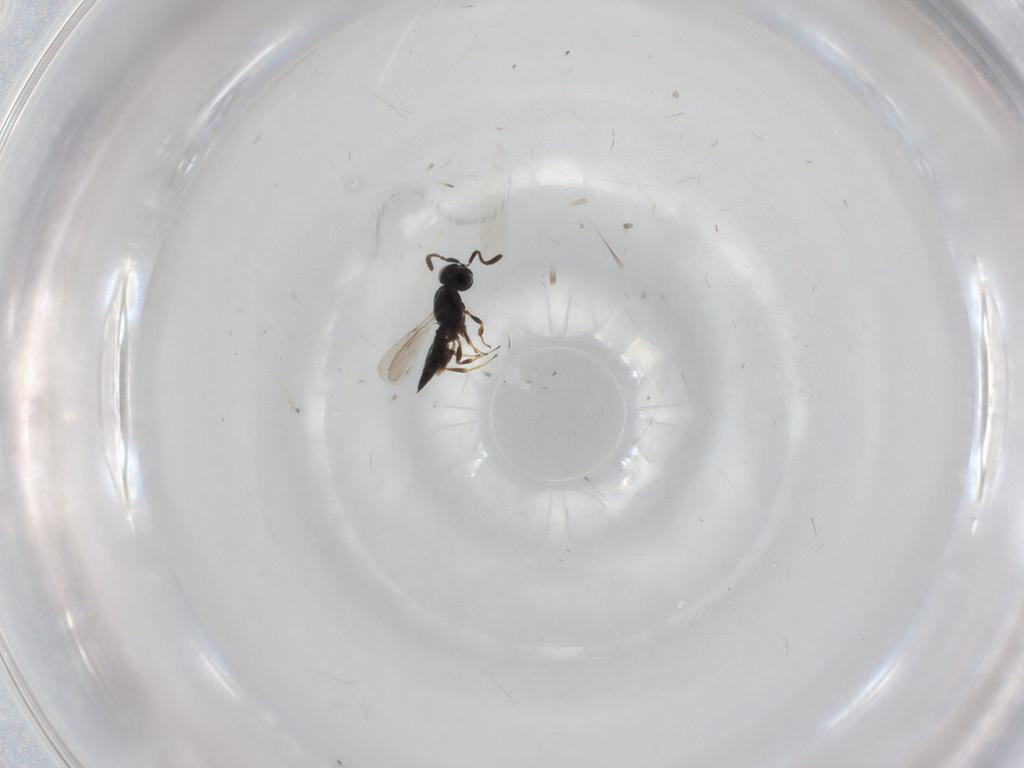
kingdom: Animalia
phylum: Arthropoda
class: Insecta
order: Hymenoptera
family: Scelionidae
